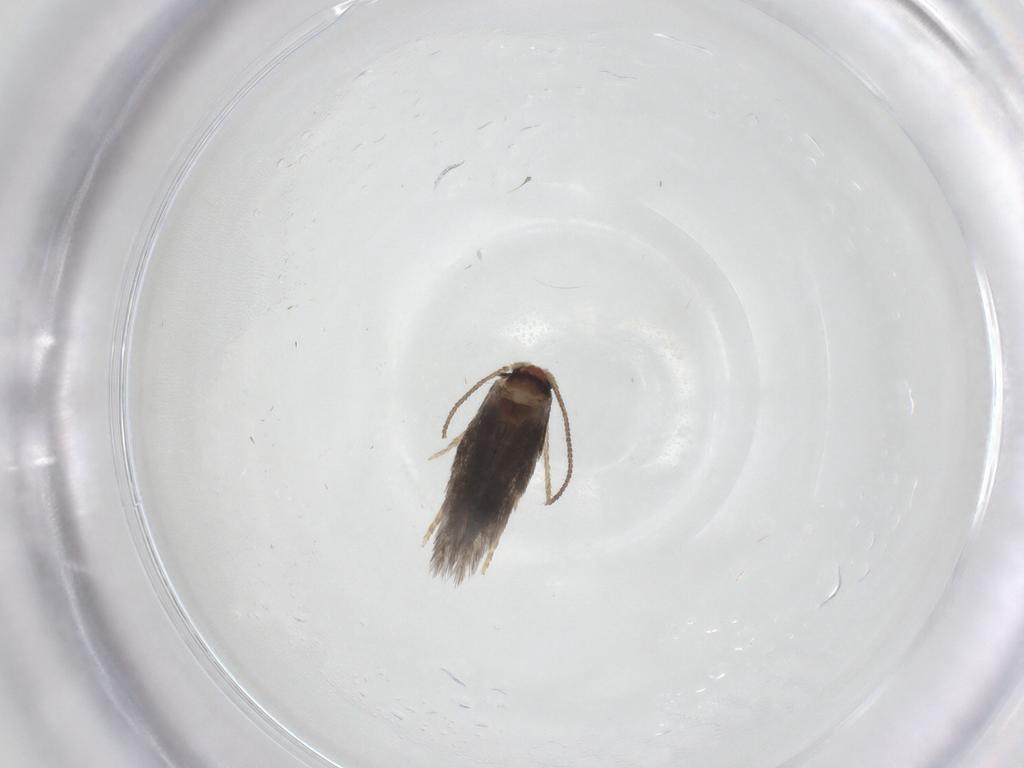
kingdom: Animalia
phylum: Arthropoda
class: Insecta
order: Lepidoptera
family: Nepticulidae
